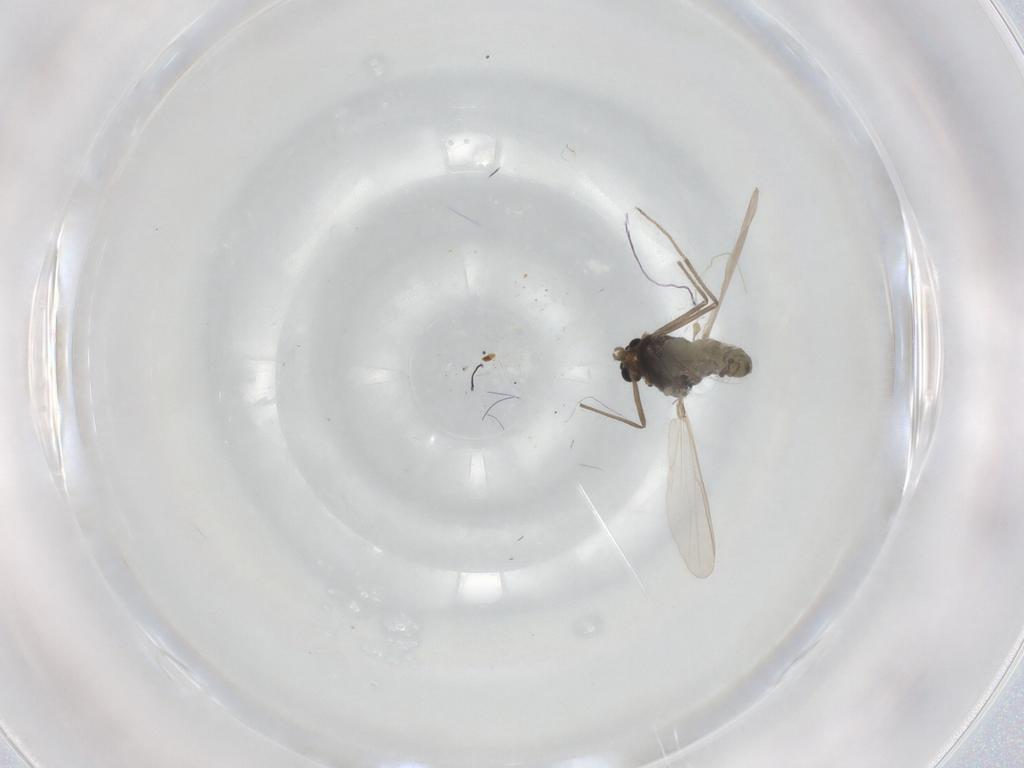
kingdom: Animalia
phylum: Arthropoda
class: Insecta
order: Diptera
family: Chironomidae
